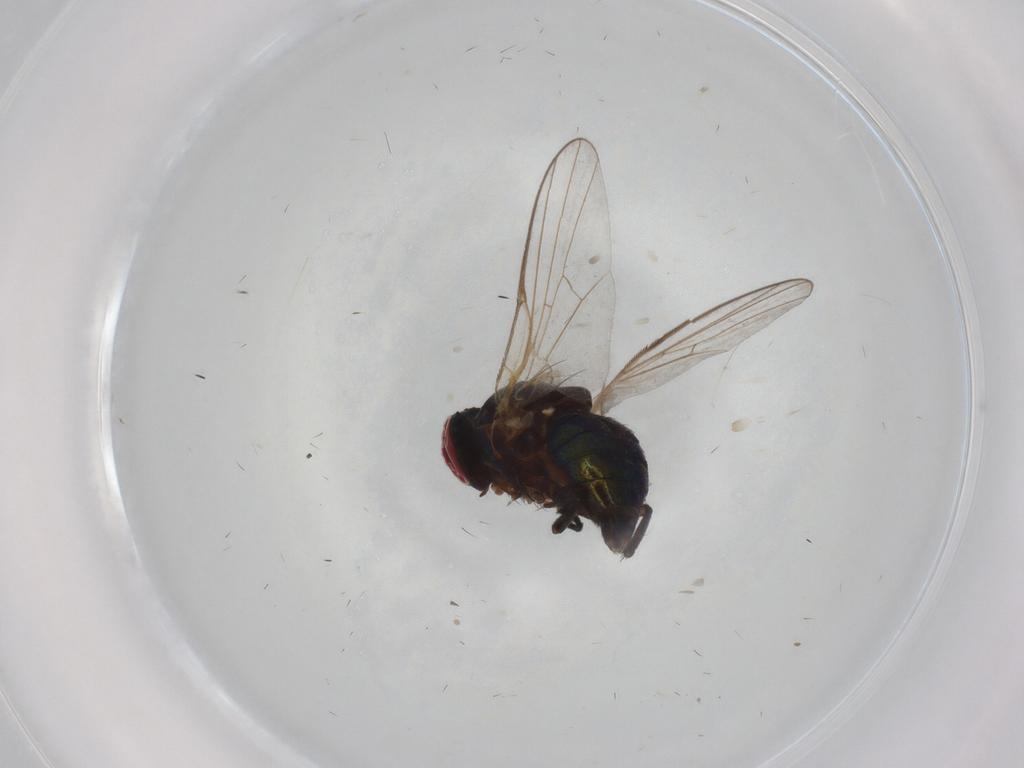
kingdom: Animalia
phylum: Arthropoda
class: Insecta
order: Diptera
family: Agromyzidae
